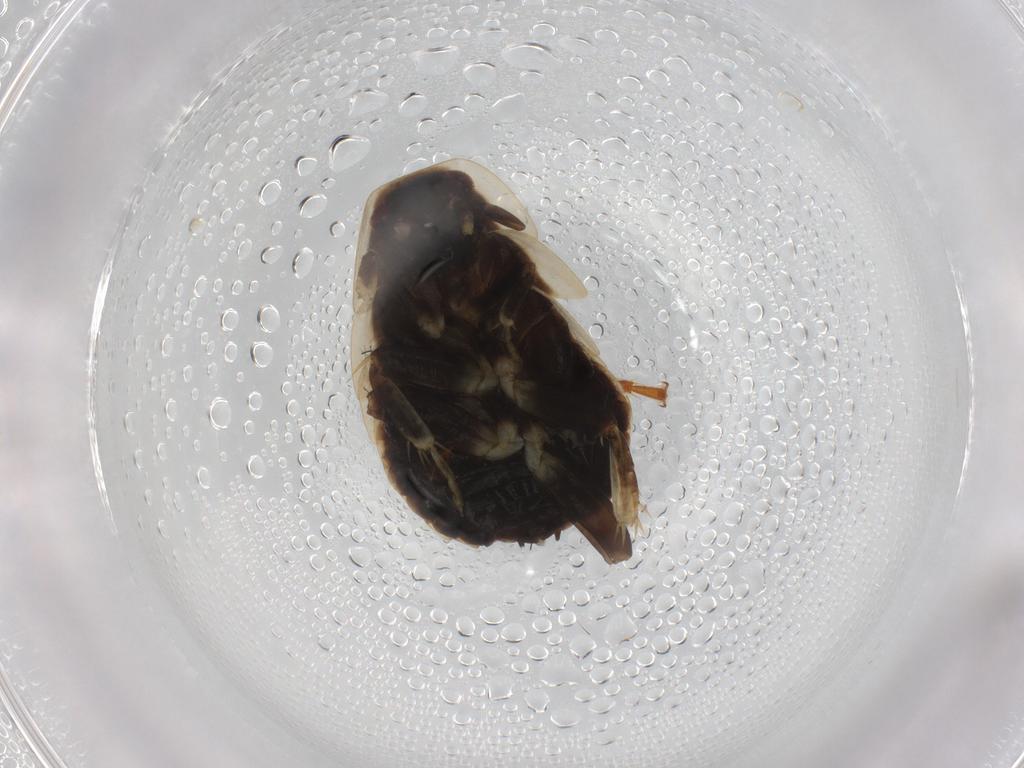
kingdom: Animalia
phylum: Arthropoda
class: Insecta
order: Blattodea
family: Ectobiidae
